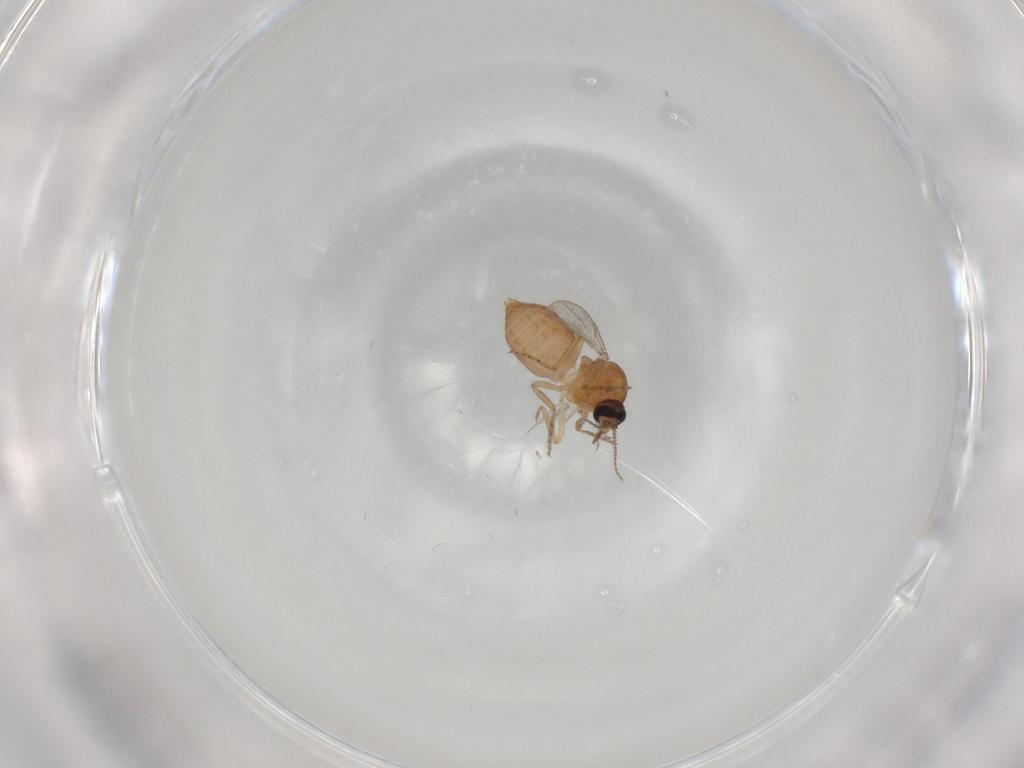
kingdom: Animalia
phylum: Arthropoda
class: Insecta
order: Diptera
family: Ceratopogonidae
